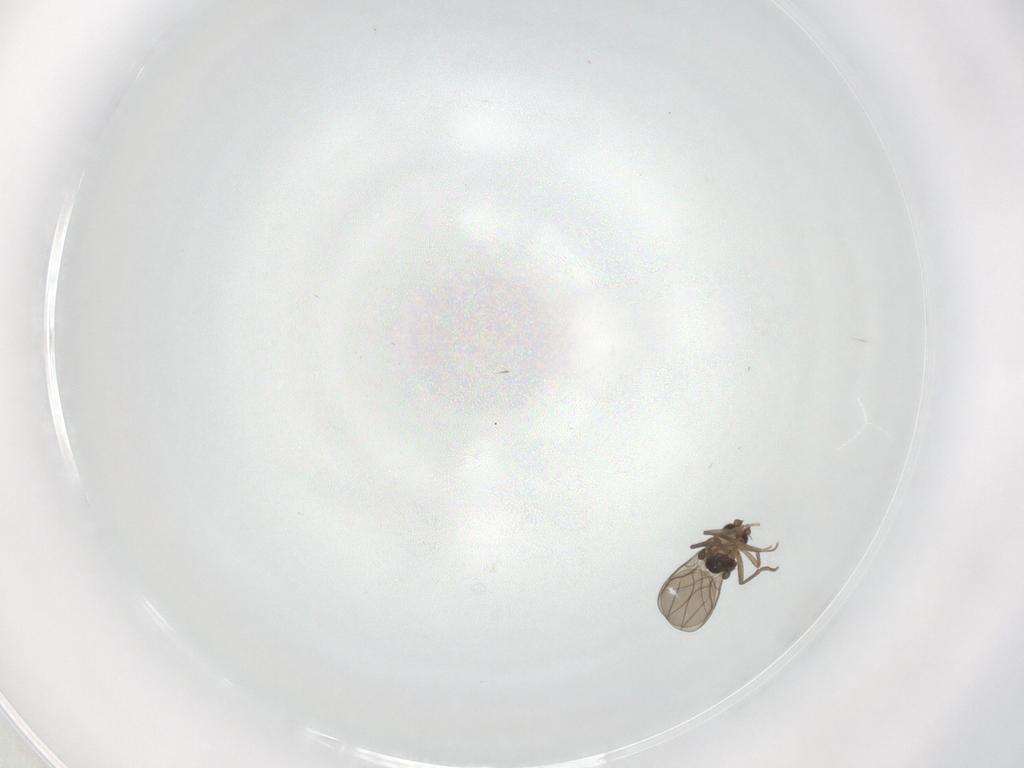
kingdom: Animalia
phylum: Arthropoda
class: Insecta
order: Diptera
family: Phoridae
